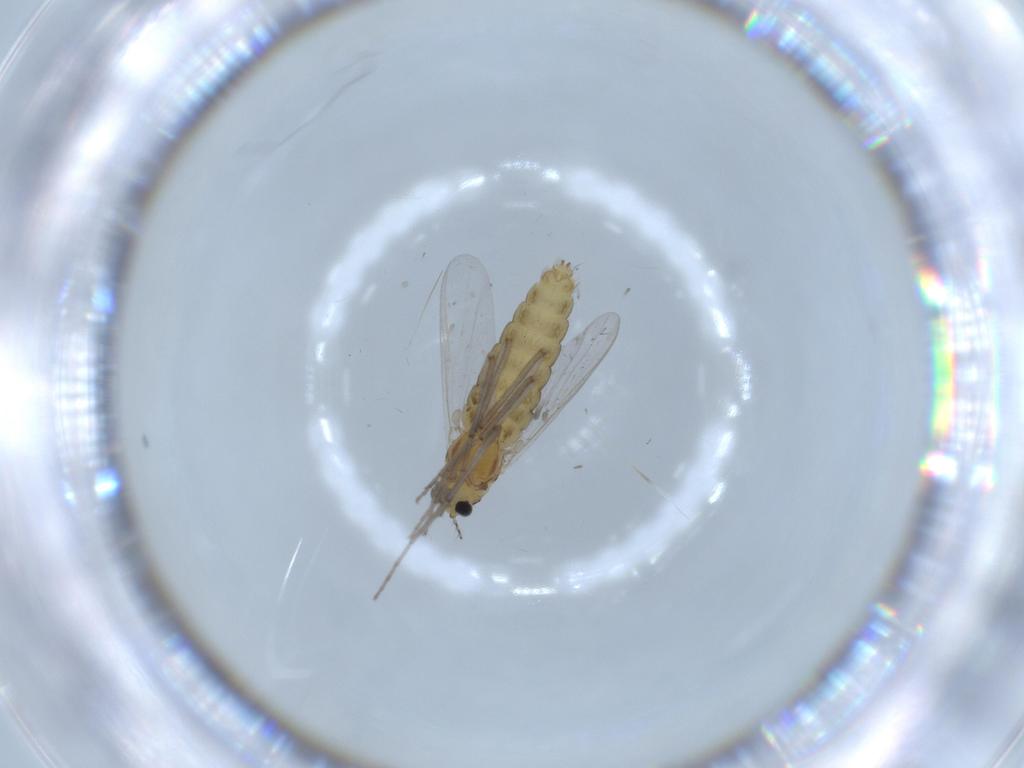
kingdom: Animalia
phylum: Arthropoda
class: Insecta
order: Diptera
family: Chironomidae
